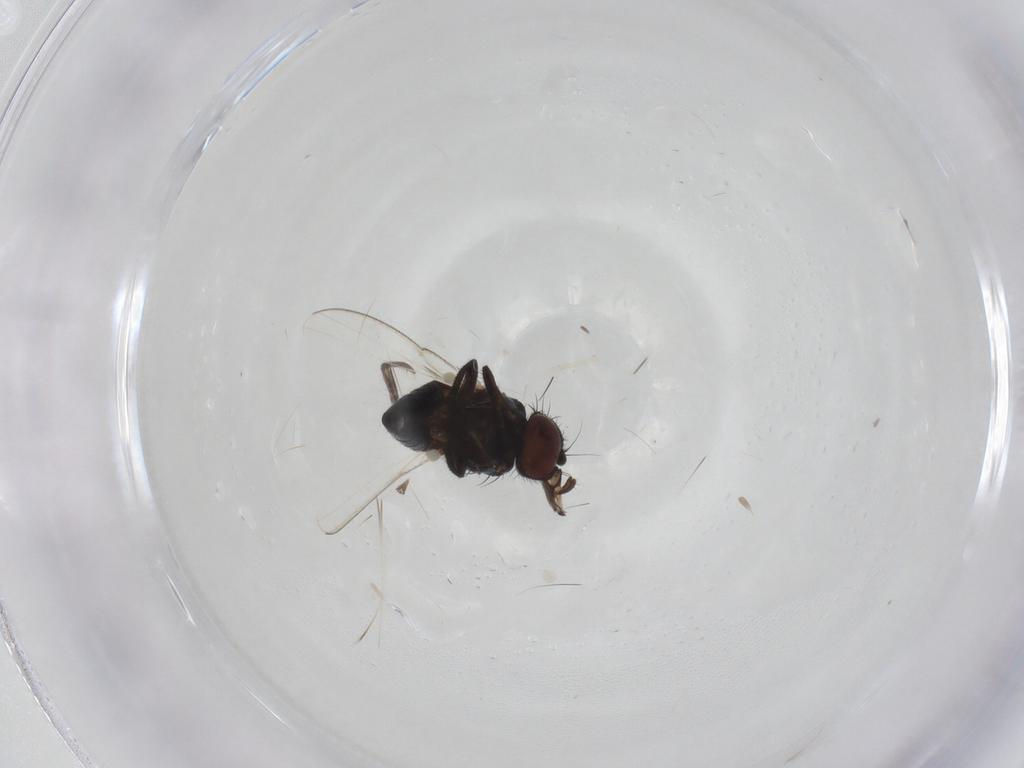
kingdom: Animalia
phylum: Arthropoda
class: Insecta
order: Diptera
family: Milichiidae
